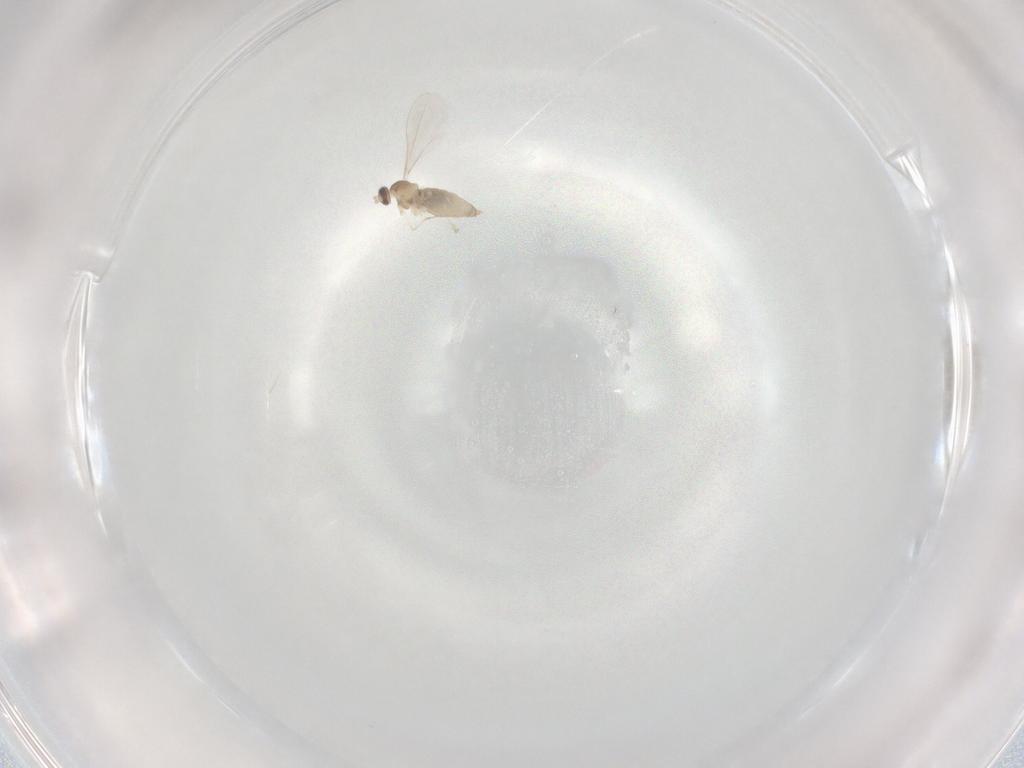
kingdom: Animalia
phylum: Arthropoda
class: Insecta
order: Diptera
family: Cecidomyiidae
